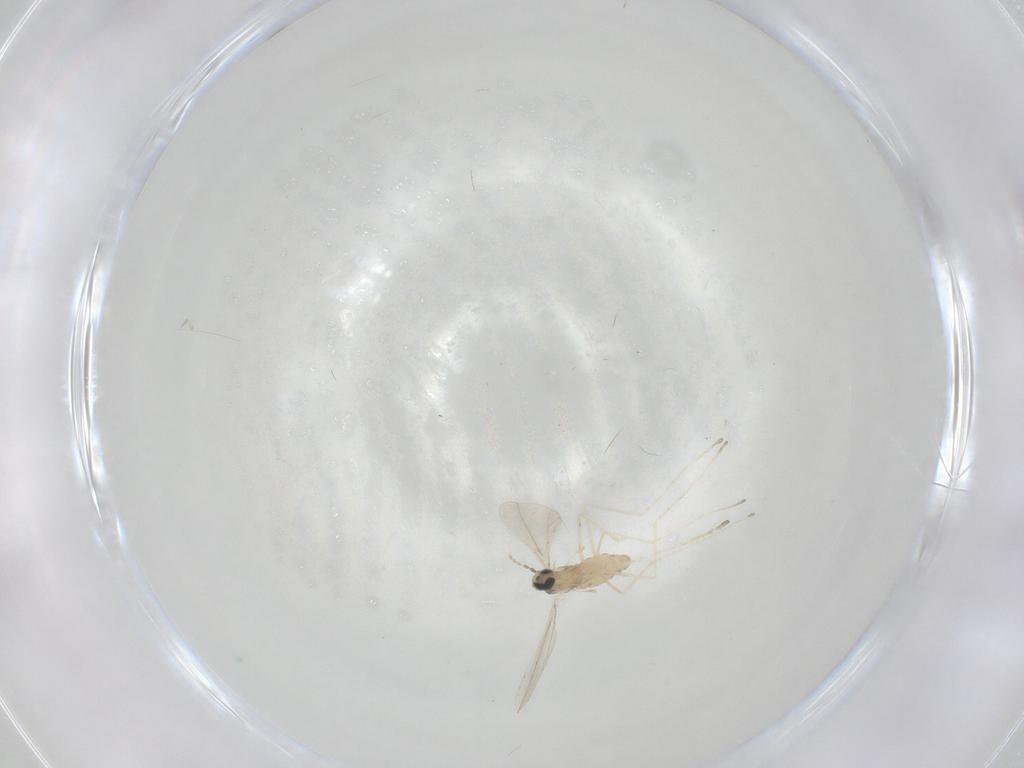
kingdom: Animalia
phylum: Arthropoda
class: Insecta
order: Diptera
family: Cecidomyiidae
